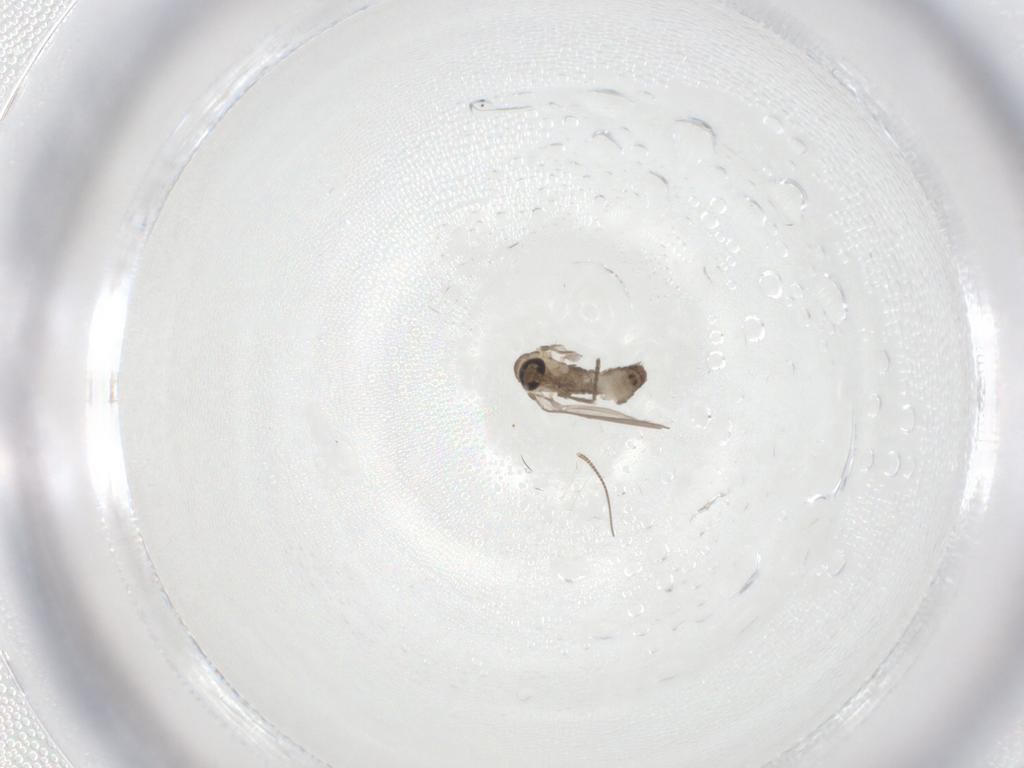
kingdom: Animalia
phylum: Arthropoda
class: Insecta
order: Diptera
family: Psychodidae
